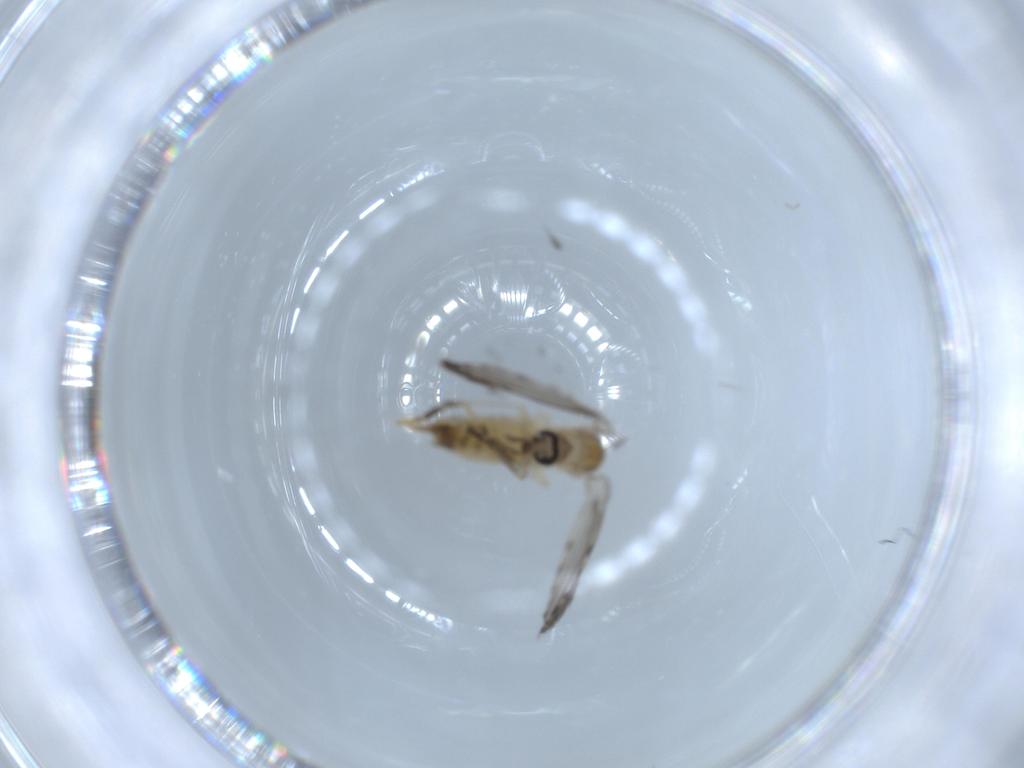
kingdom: Animalia
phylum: Arthropoda
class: Insecta
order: Diptera
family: Psychodidae
